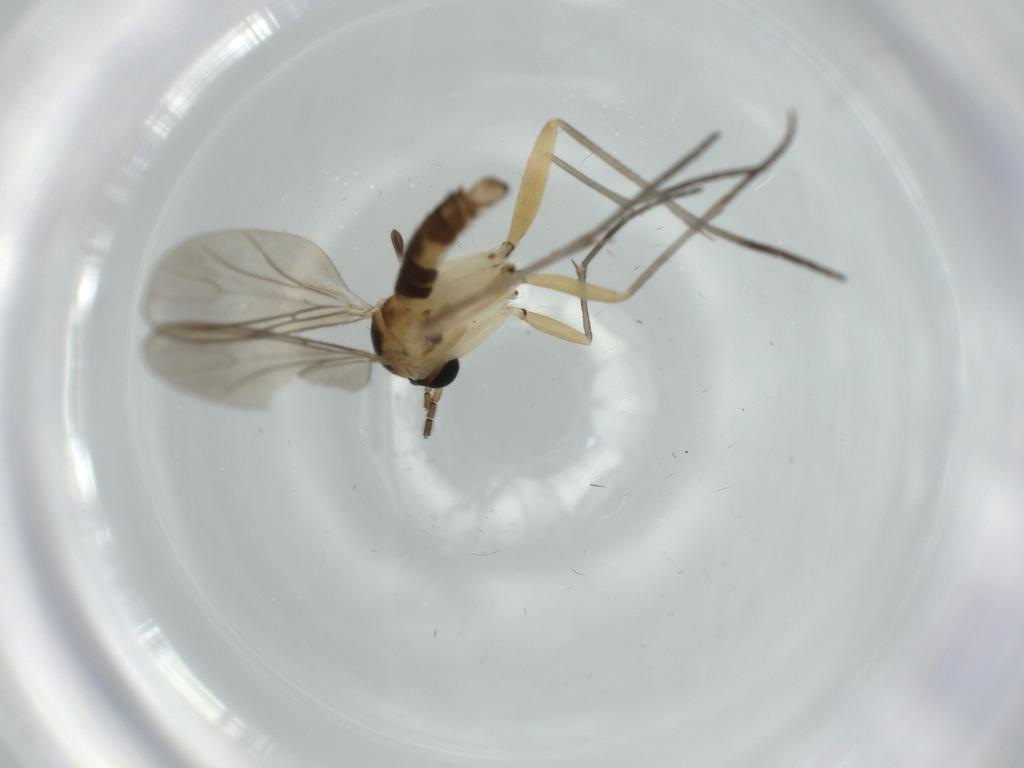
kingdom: Animalia
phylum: Arthropoda
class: Insecta
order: Diptera
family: Sciaridae
